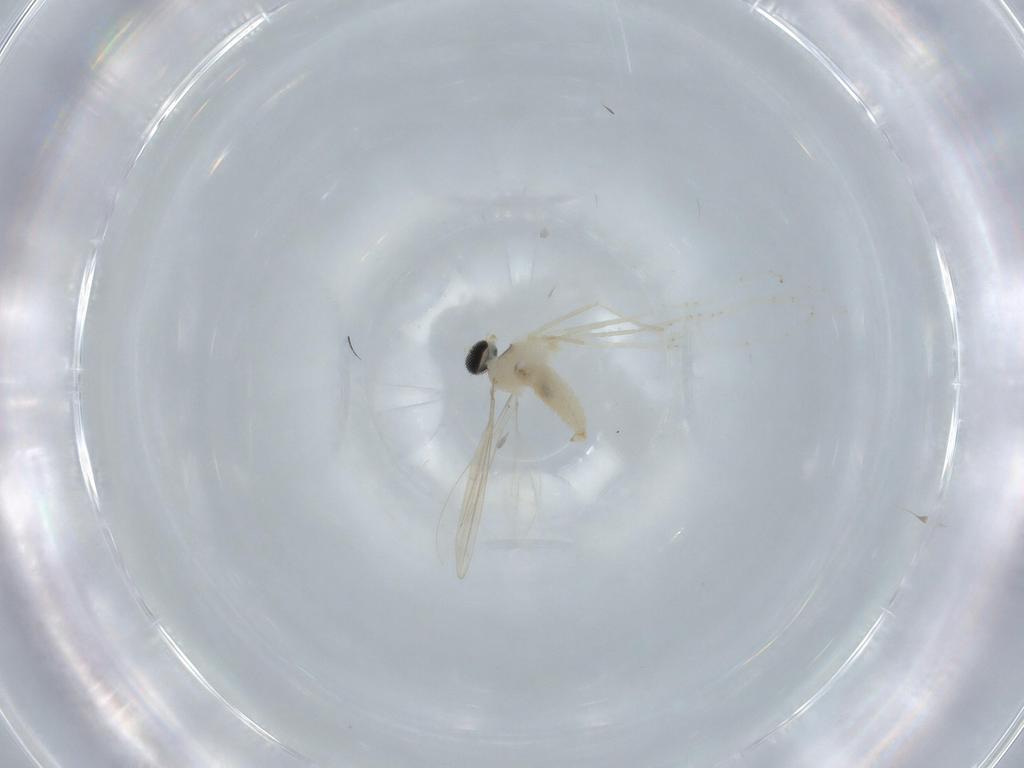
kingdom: Animalia
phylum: Arthropoda
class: Insecta
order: Diptera
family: Cecidomyiidae
